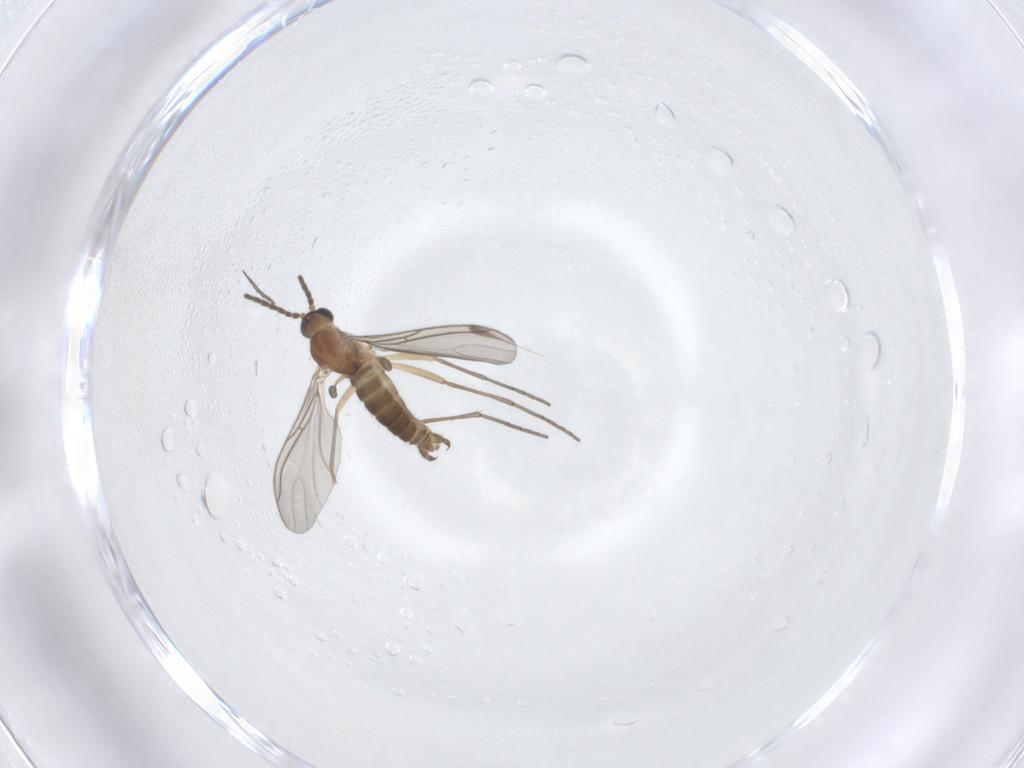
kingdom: Animalia
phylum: Arthropoda
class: Insecta
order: Diptera
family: Sciaridae
